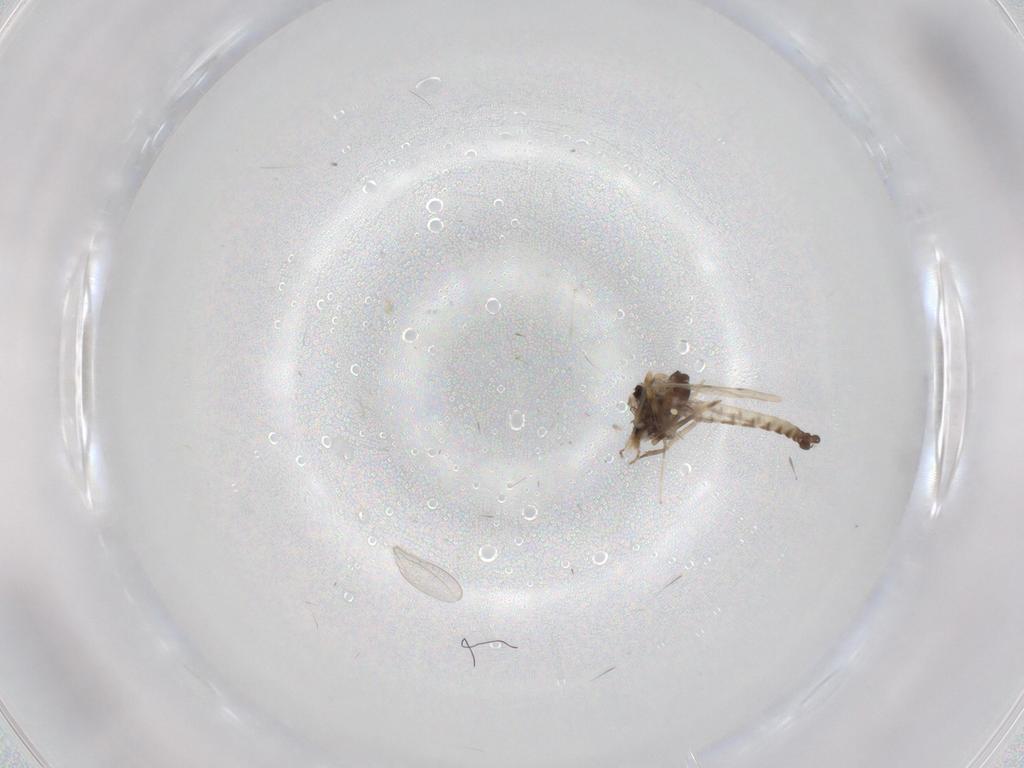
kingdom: Animalia
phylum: Arthropoda
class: Insecta
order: Diptera
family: Ceratopogonidae
